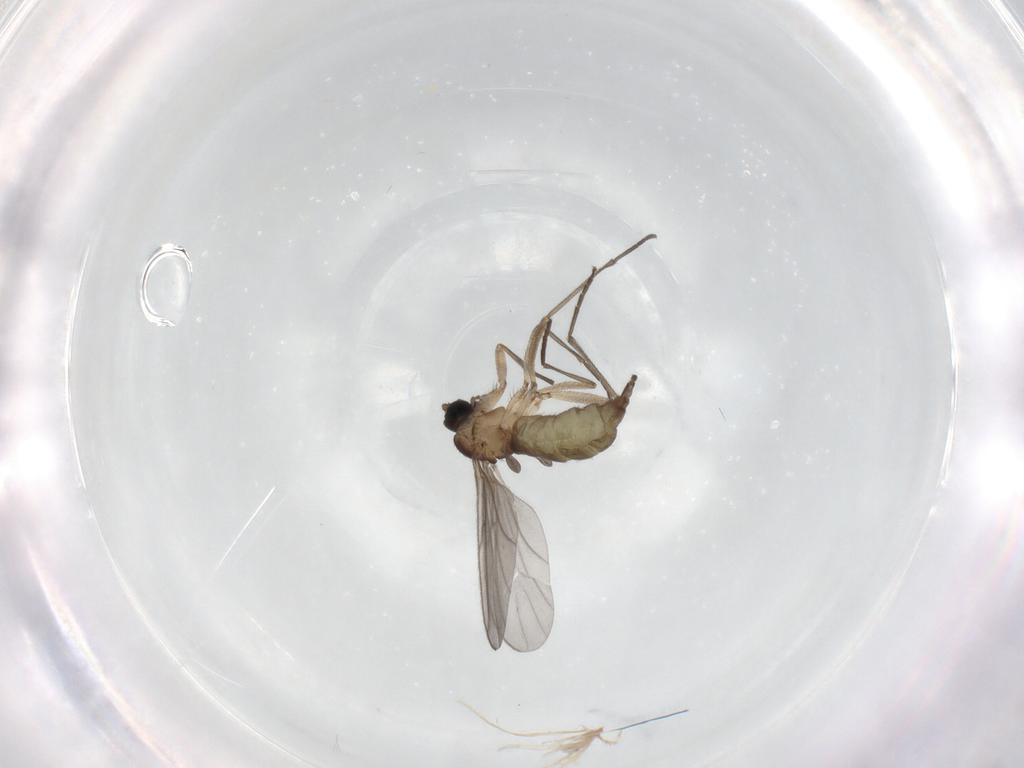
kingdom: Animalia
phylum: Arthropoda
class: Insecta
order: Diptera
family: Sciaridae
